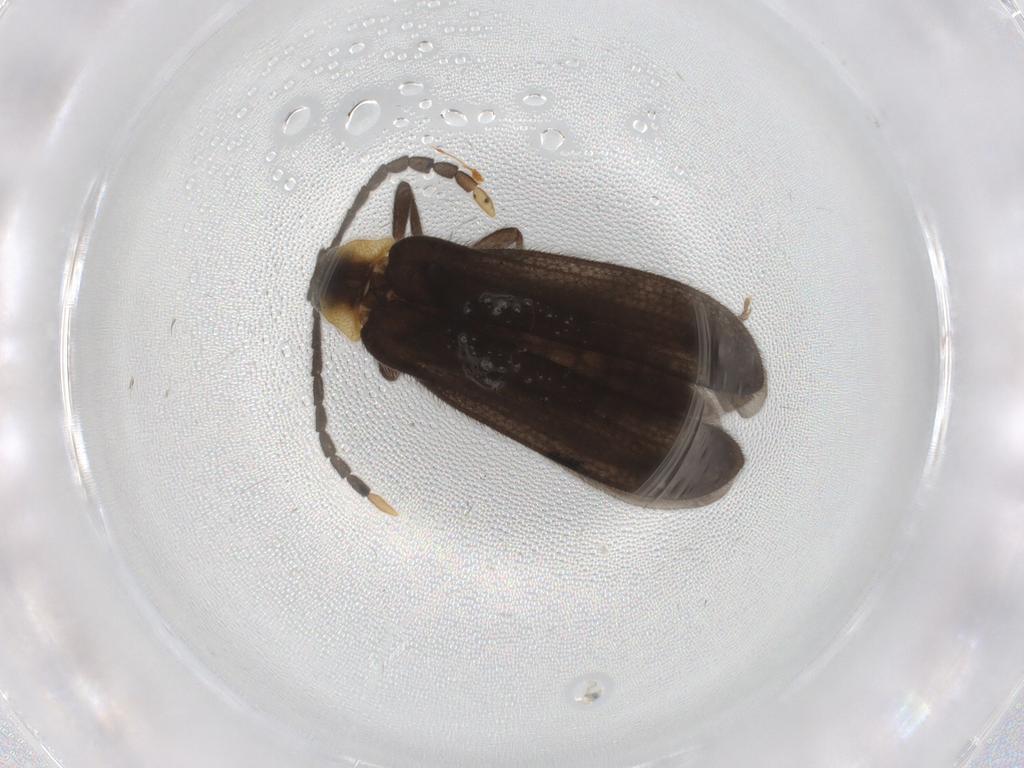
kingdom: Animalia
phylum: Arthropoda
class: Insecta
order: Coleoptera
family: Lycidae
